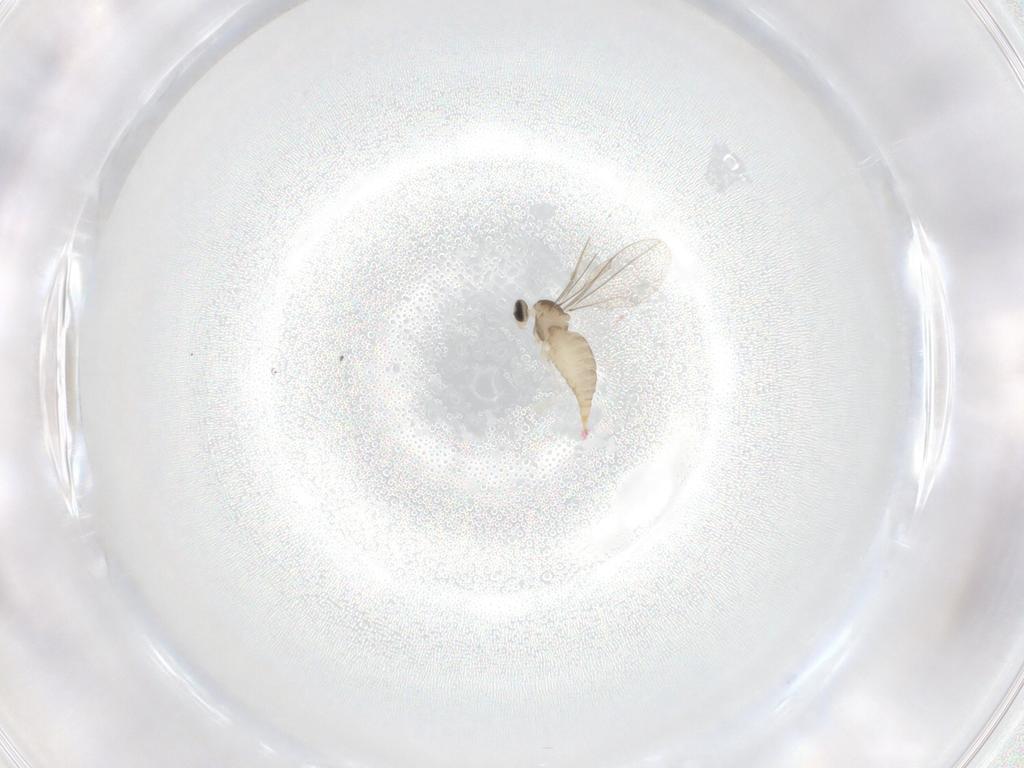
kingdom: Animalia
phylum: Arthropoda
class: Insecta
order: Diptera
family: Cecidomyiidae
